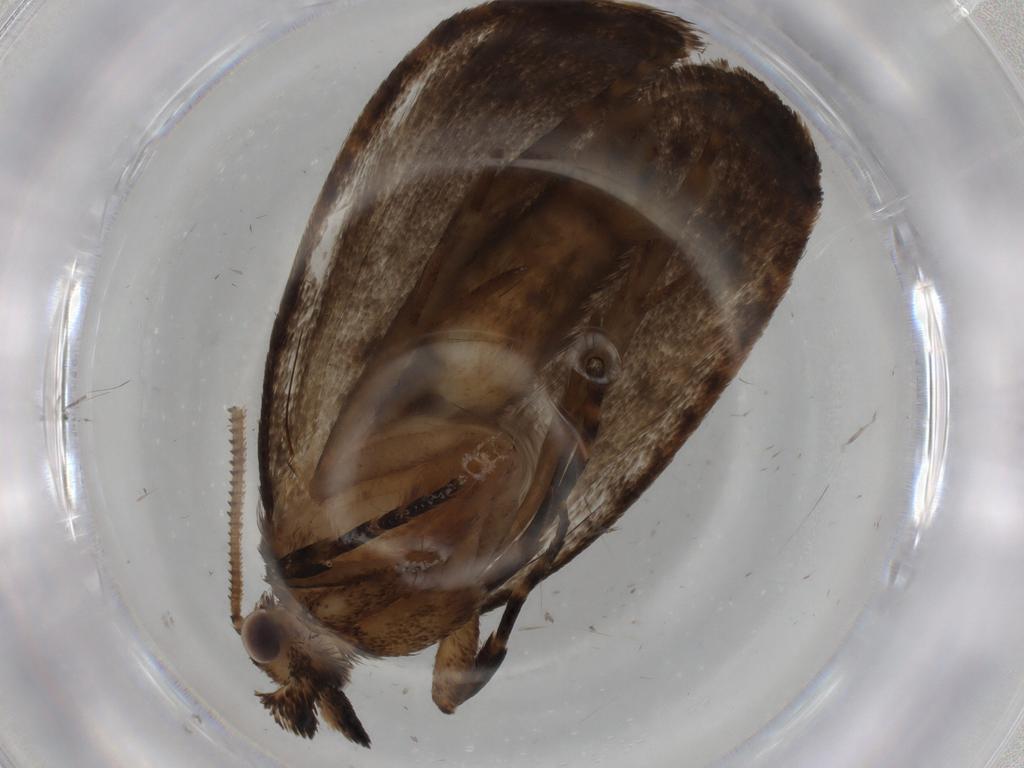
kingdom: Animalia
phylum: Arthropoda
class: Insecta
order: Lepidoptera
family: Tineidae
